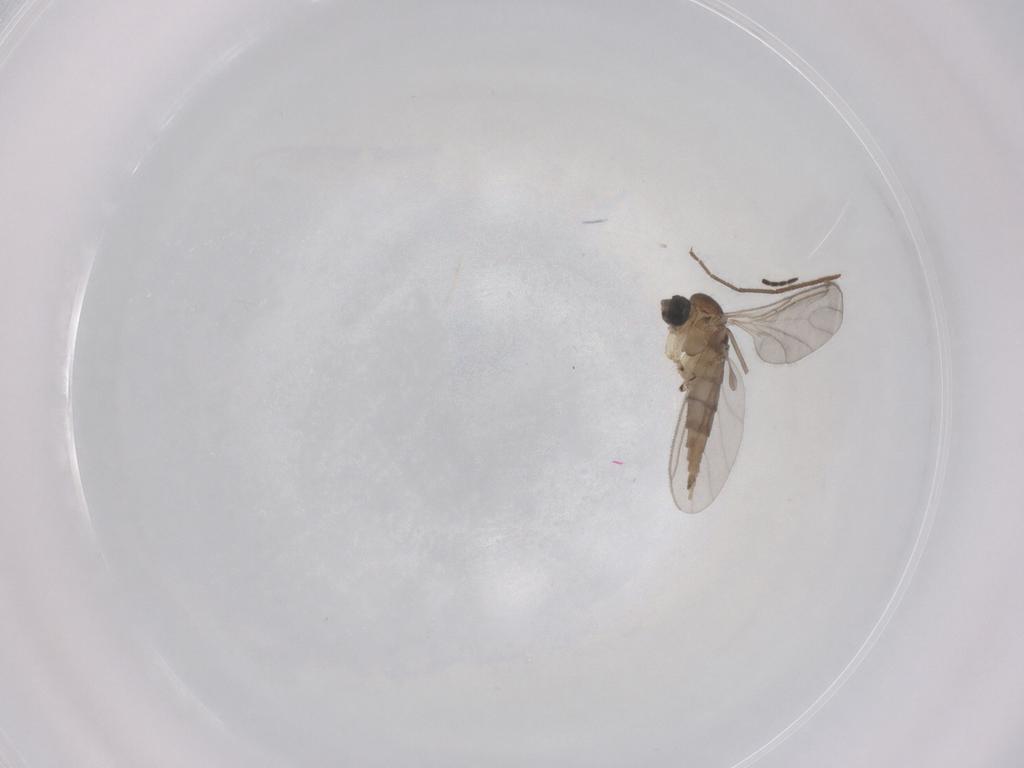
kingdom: Animalia
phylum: Arthropoda
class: Insecta
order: Diptera
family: Sciaridae
